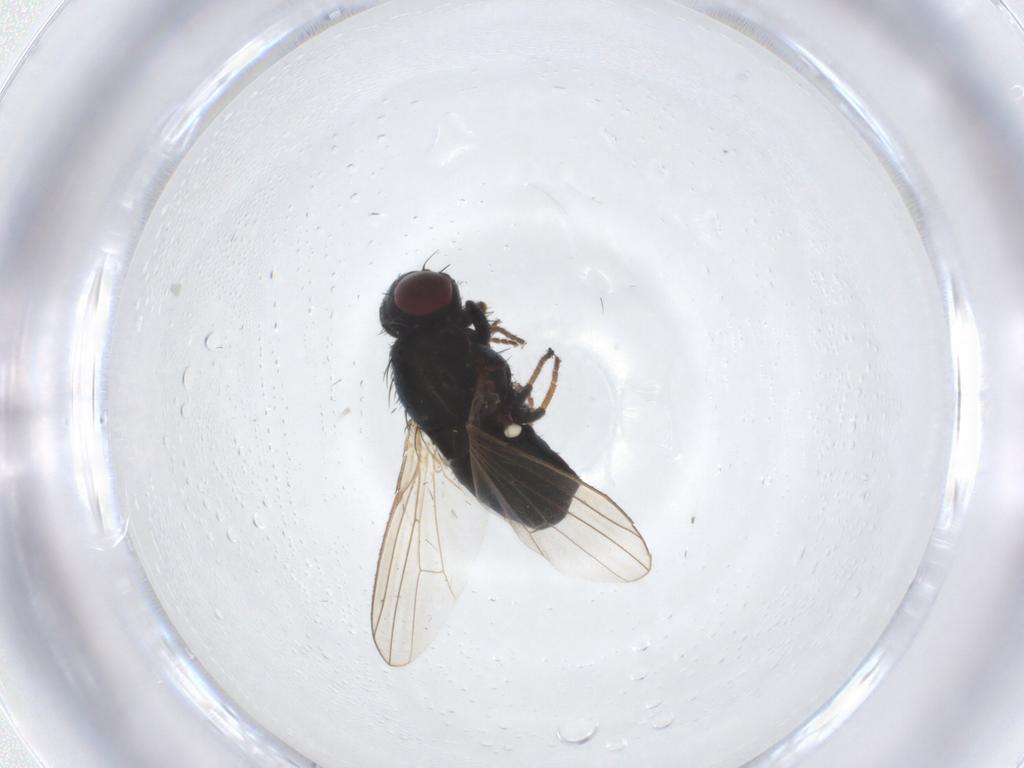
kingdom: Animalia
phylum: Arthropoda
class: Insecta
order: Diptera
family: Carnidae
